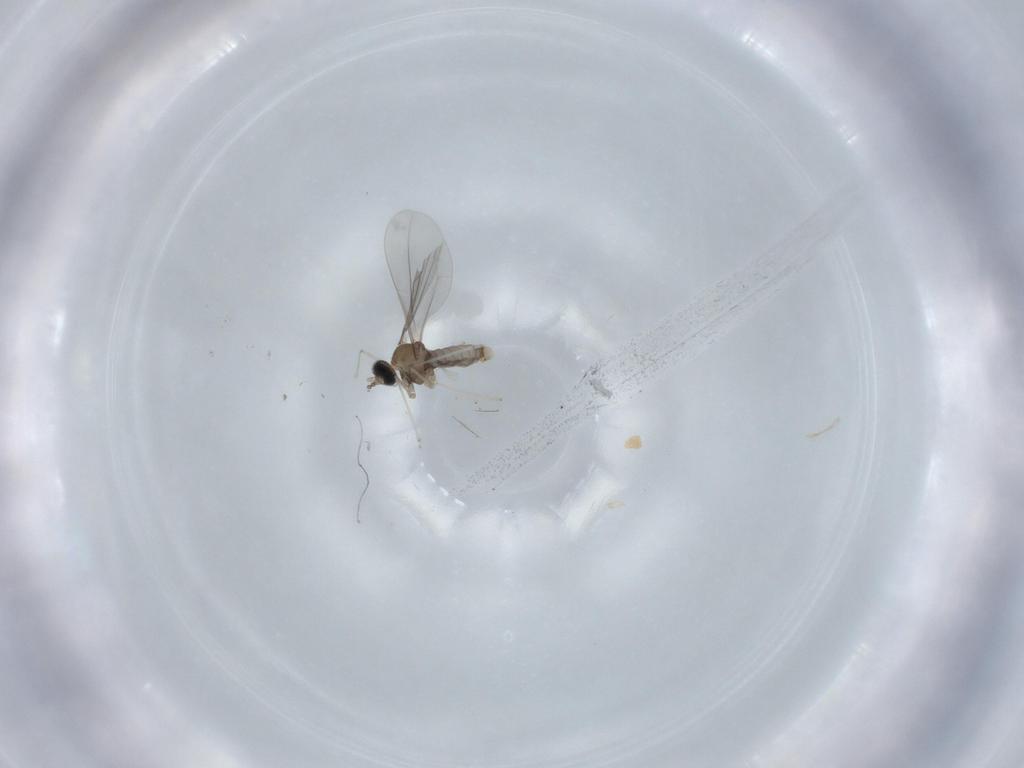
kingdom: Animalia
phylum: Arthropoda
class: Insecta
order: Diptera
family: Cecidomyiidae
